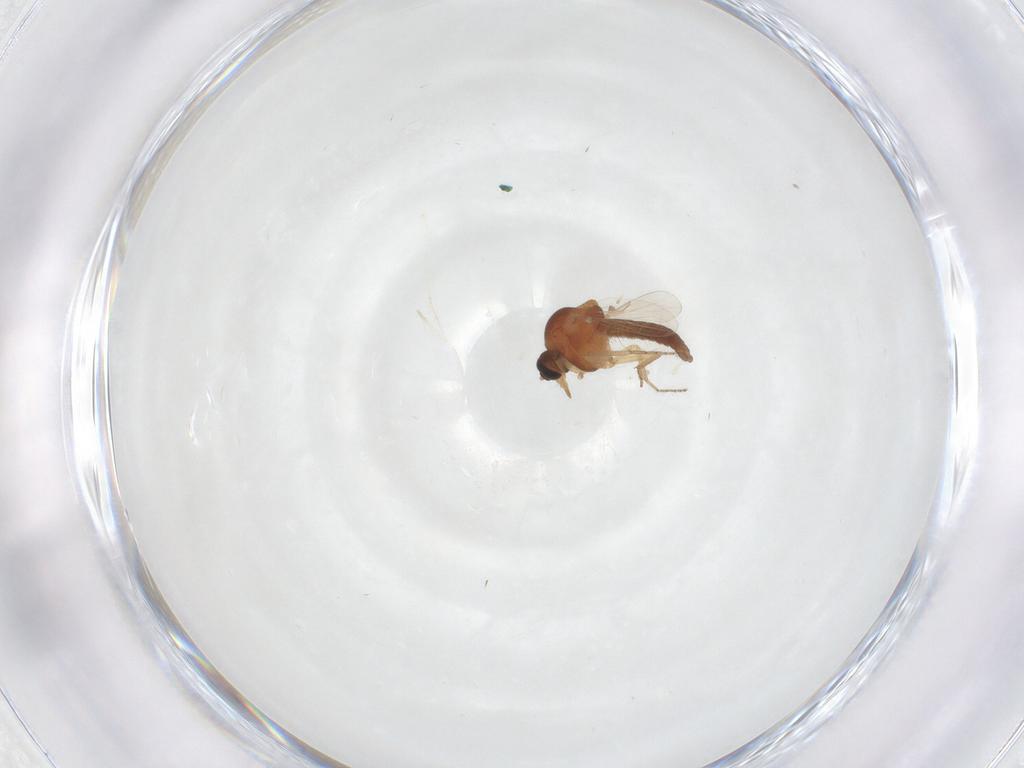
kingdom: Animalia
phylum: Arthropoda
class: Insecta
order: Diptera
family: Ceratopogonidae
